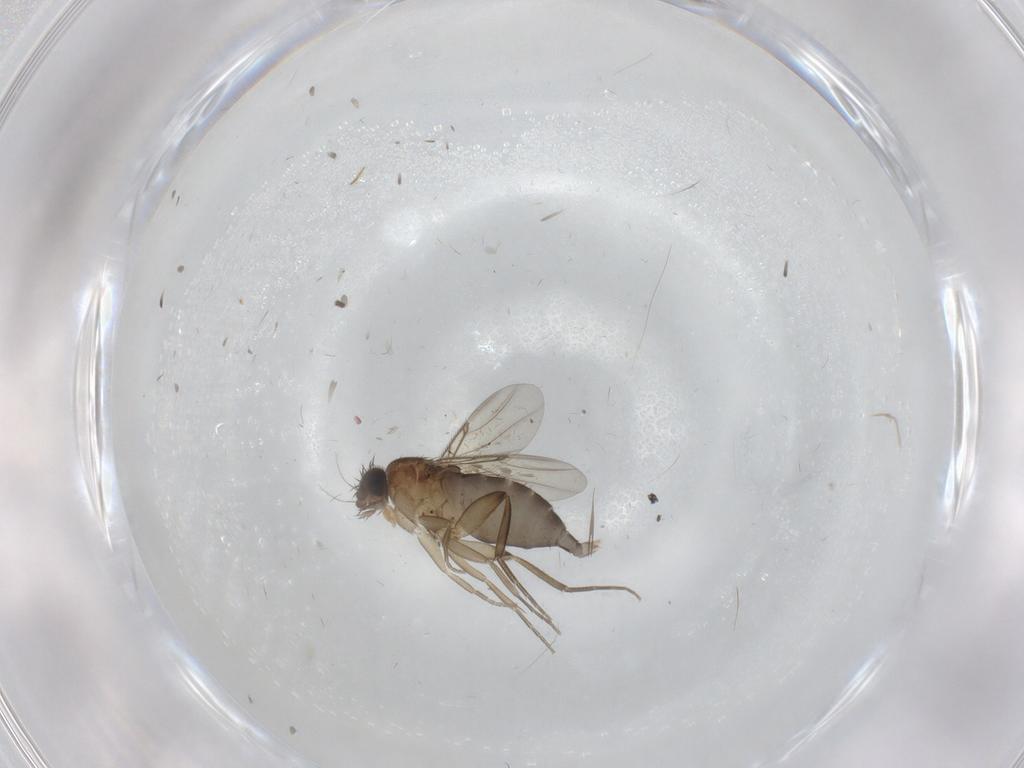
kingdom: Animalia
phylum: Arthropoda
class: Insecta
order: Diptera
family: Phoridae
